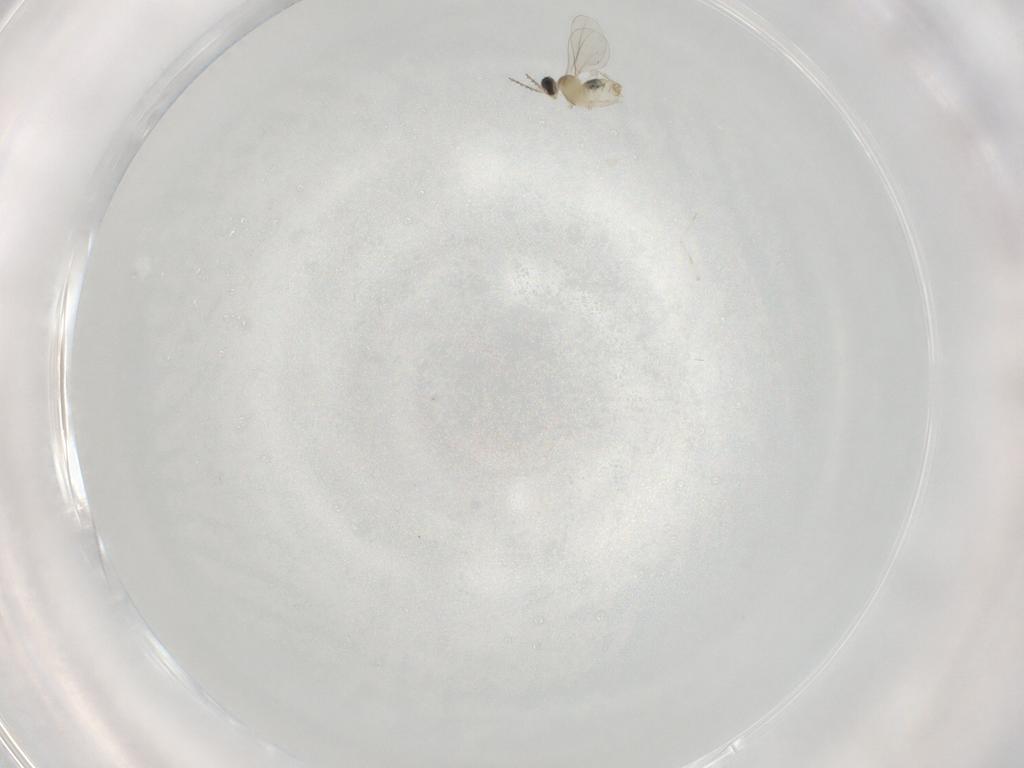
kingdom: Animalia
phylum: Arthropoda
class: Insecta
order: Diptera
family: Cecidomyiidae
